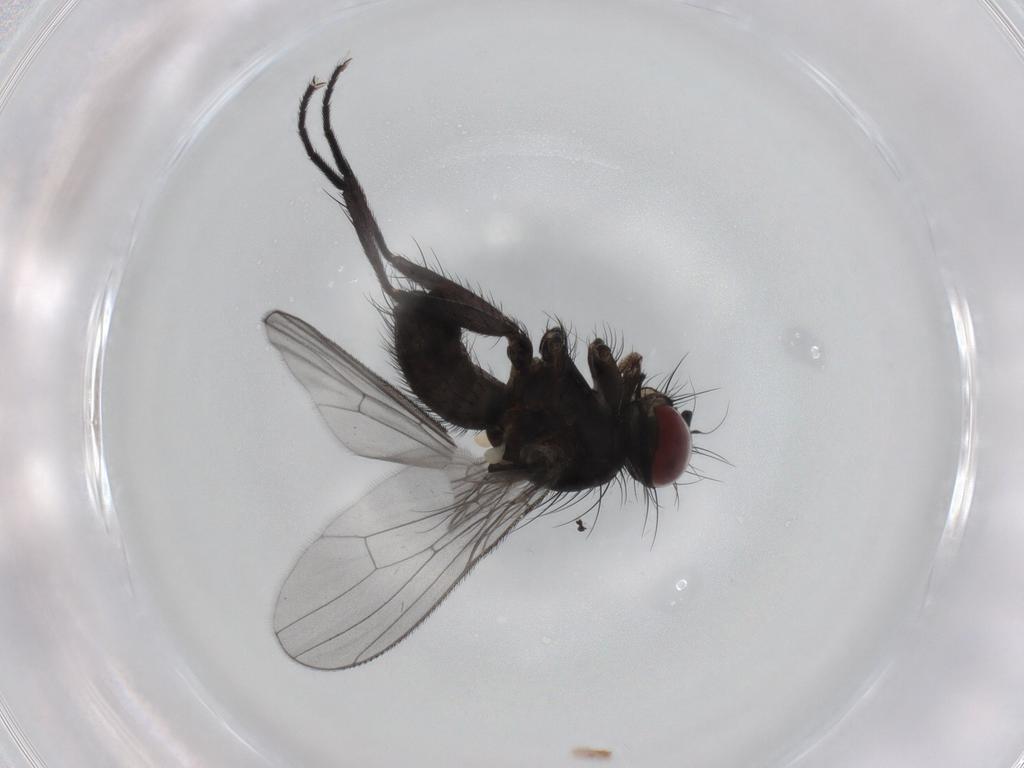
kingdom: Animalia
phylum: Arthropoda
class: Insecta
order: Diptera
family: Muscidae
